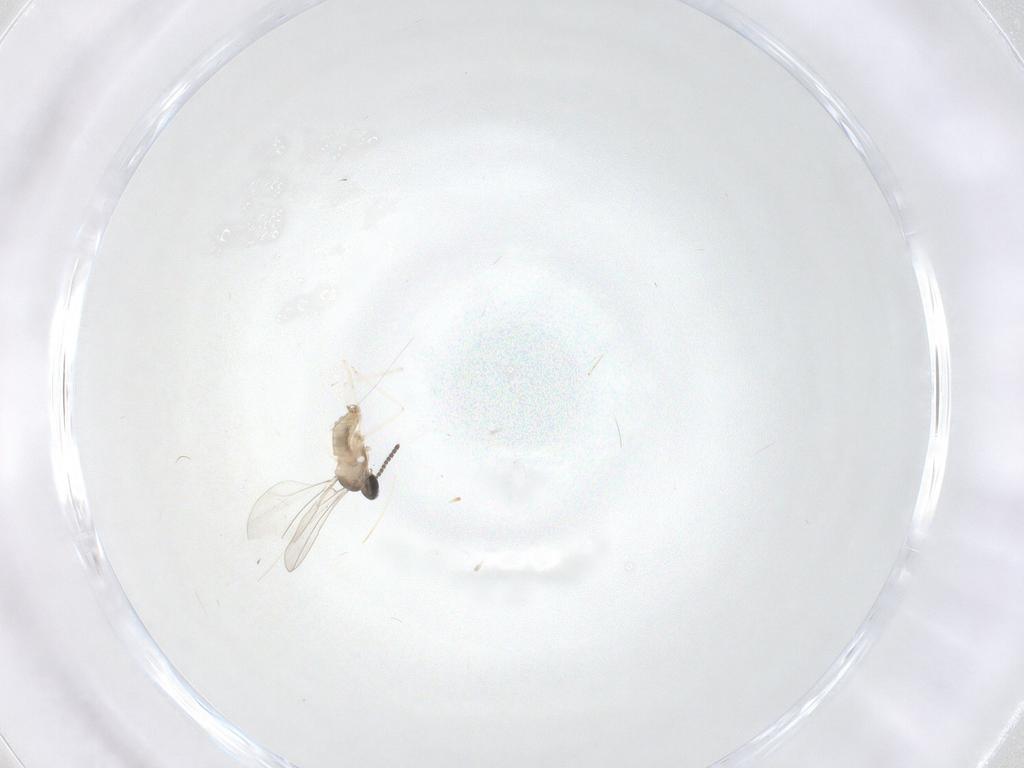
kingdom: Animalia
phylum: Arthropoda
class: Insecta
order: Diptera
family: Cecidomyiidae
